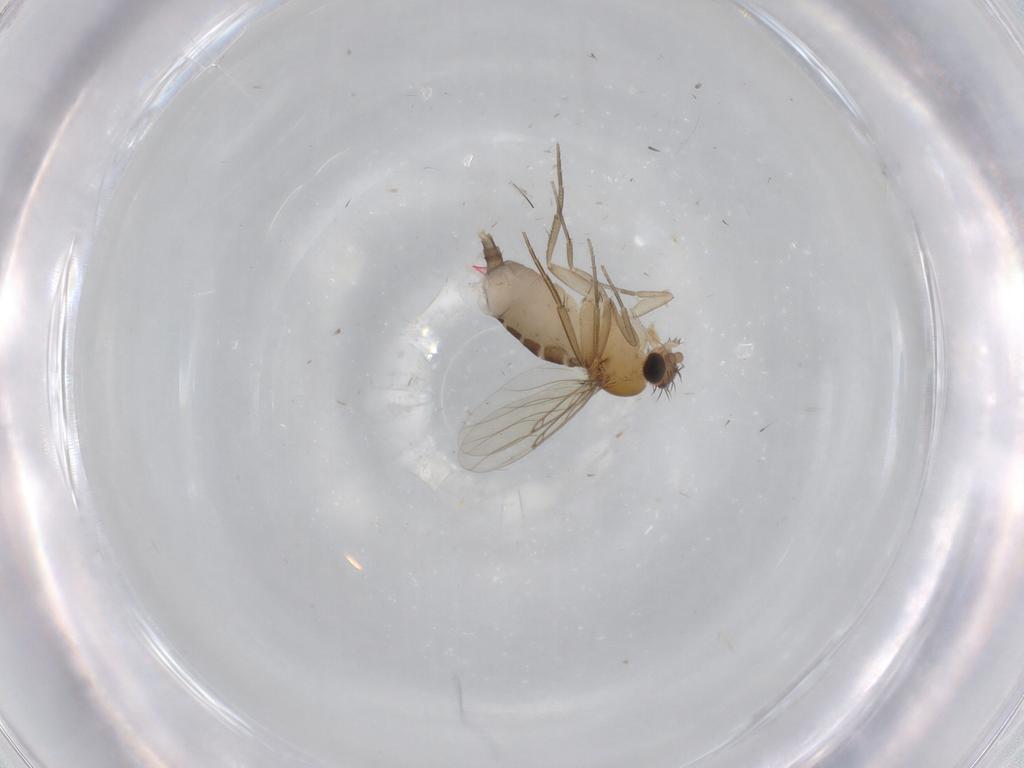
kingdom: Animalia
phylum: Arthropoda
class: Insecta
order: Diptera
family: Phoridae
